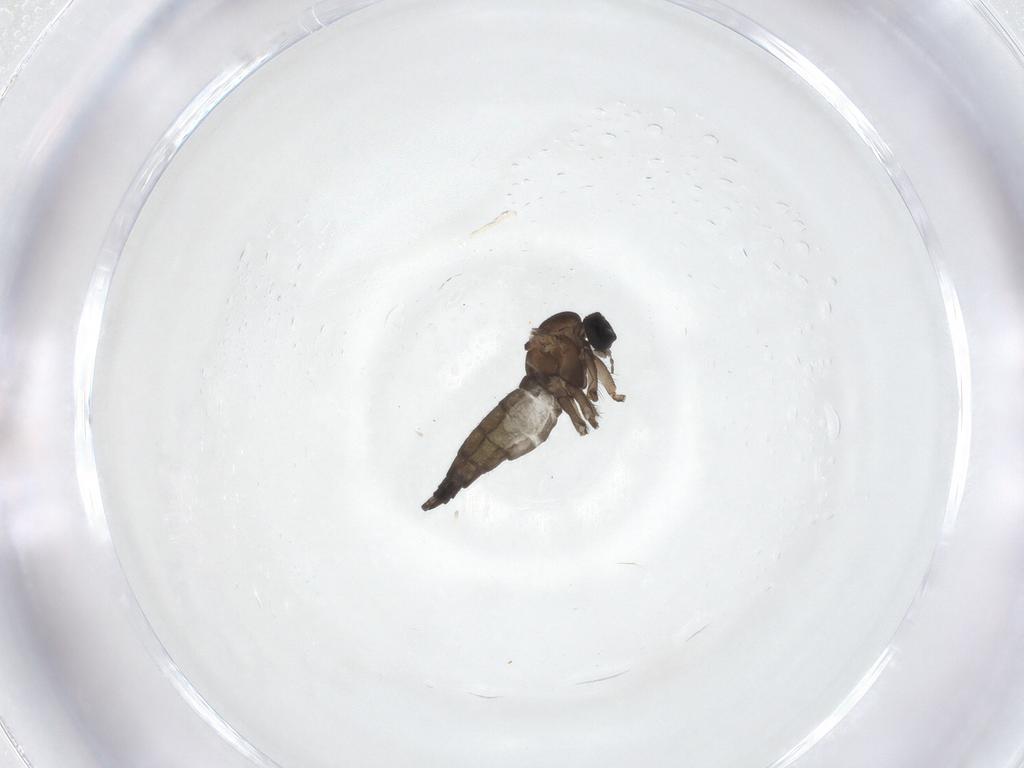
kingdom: Animalia
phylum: Arthropoda
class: Insecta
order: Diptera
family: Sciaridae
